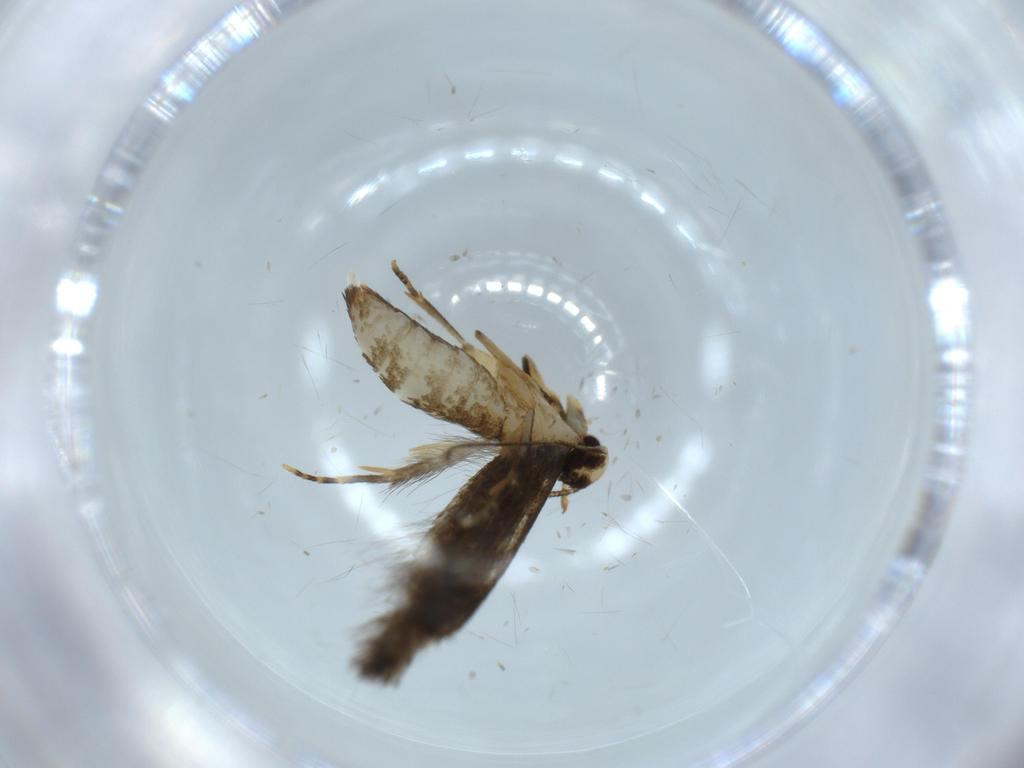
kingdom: Animalia
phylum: Arthropoda
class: Insecta
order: Lepidoptera
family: Tineidae
